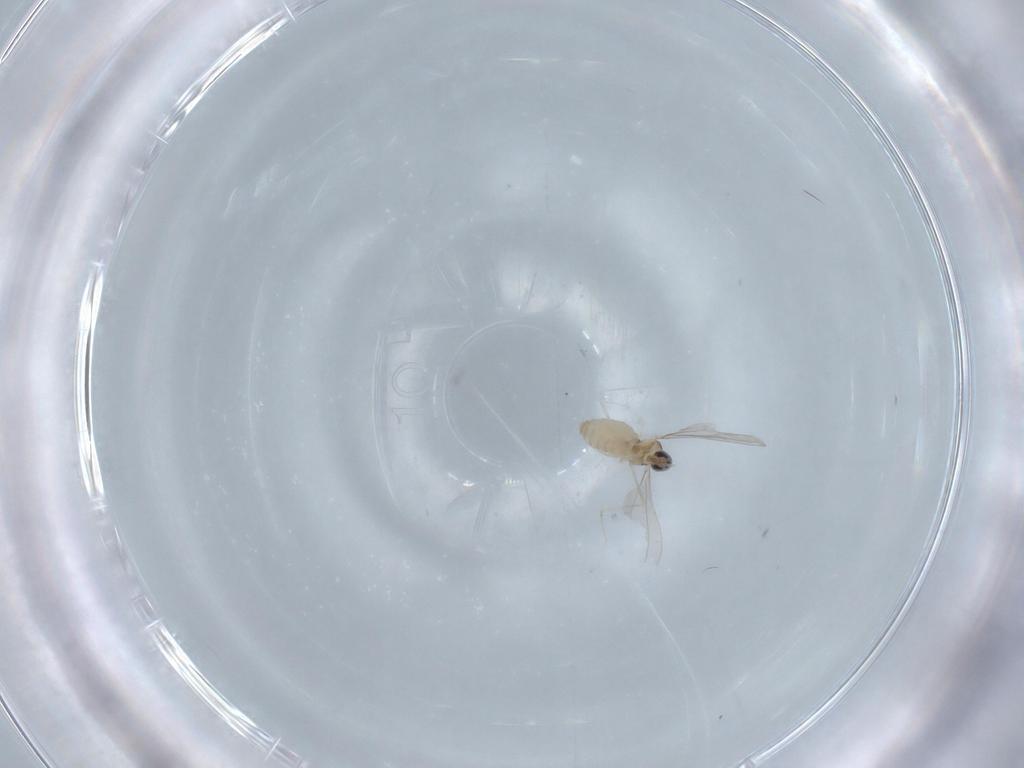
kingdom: Animalia
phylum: Arthropoda
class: Insecta
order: Diptera
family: Cecidomyiidae
